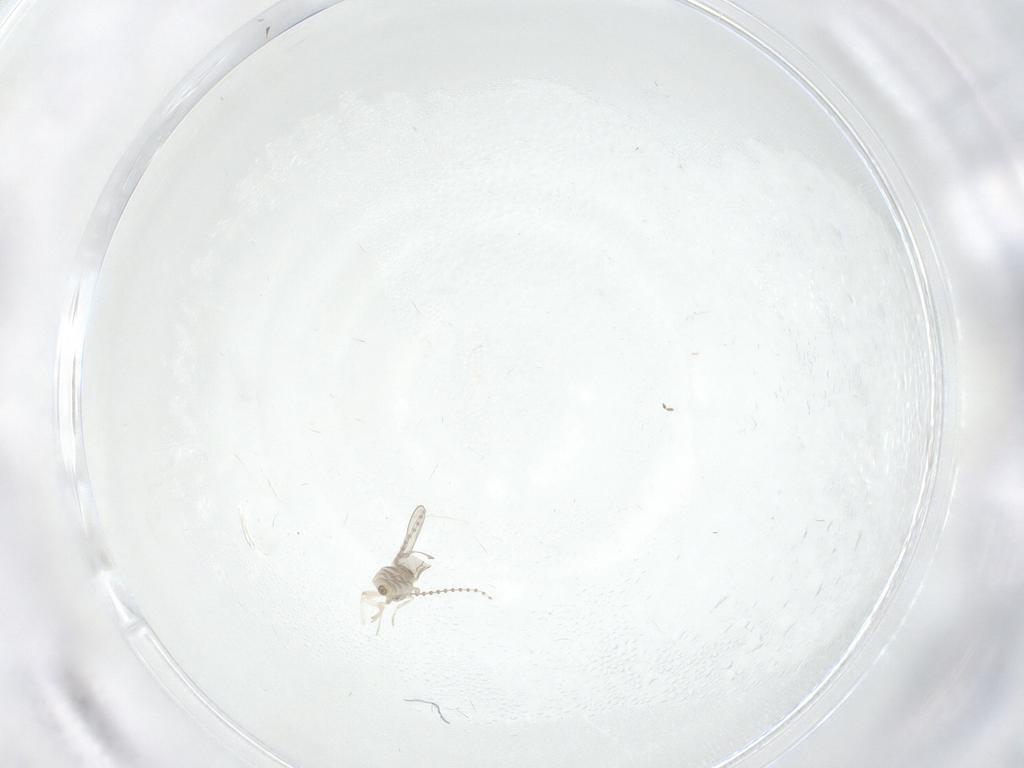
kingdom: Animalia
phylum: Arthropoda
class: Insecta
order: Diptera
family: Cecidomyiidae
